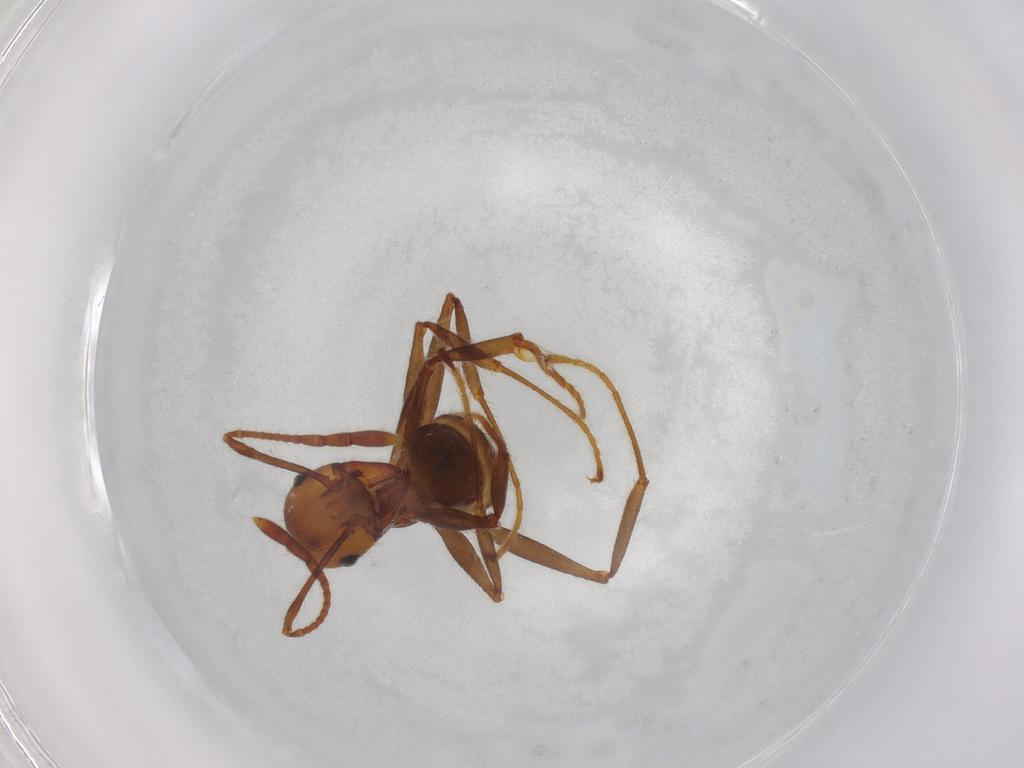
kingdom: Animalia
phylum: Arthropoda
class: Insecta
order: Hymenoptera
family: Formicidae
